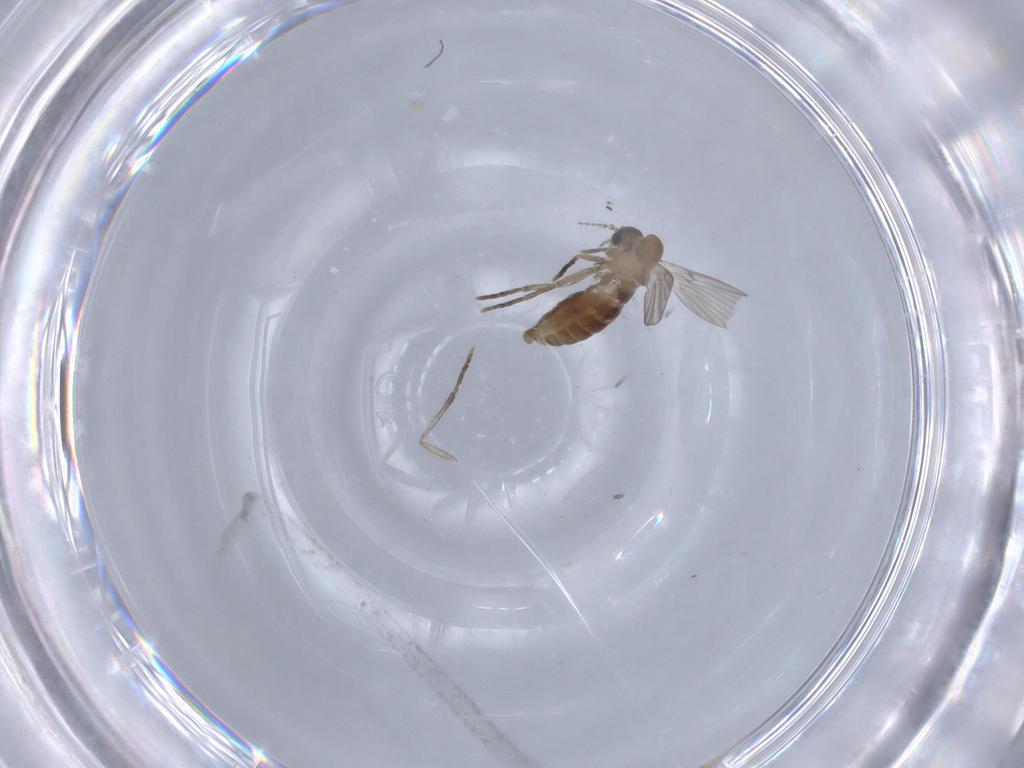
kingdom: Animalia
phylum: Arthropoda
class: Insecta
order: Diptera
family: Psychodidae
